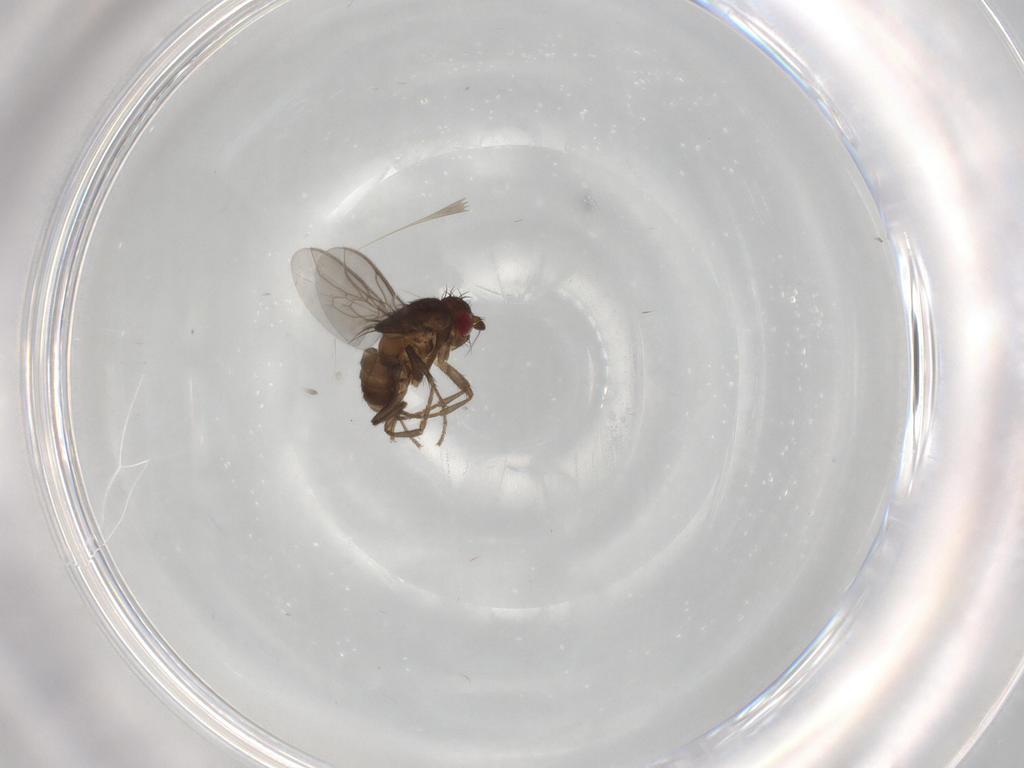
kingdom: Animalia
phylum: Arthropoda
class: Insecta
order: Diptera
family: Sphaeroceridae
